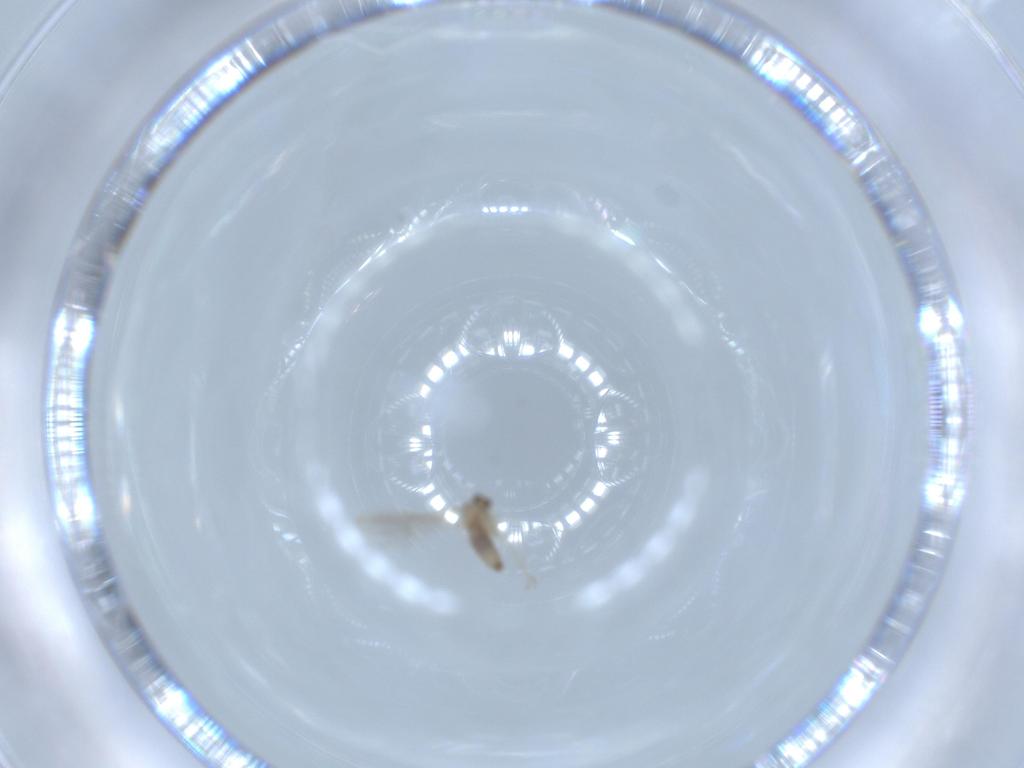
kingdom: Animalia
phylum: Arthropoda
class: Insecta
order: Diptera
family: Cecidomyiidae
